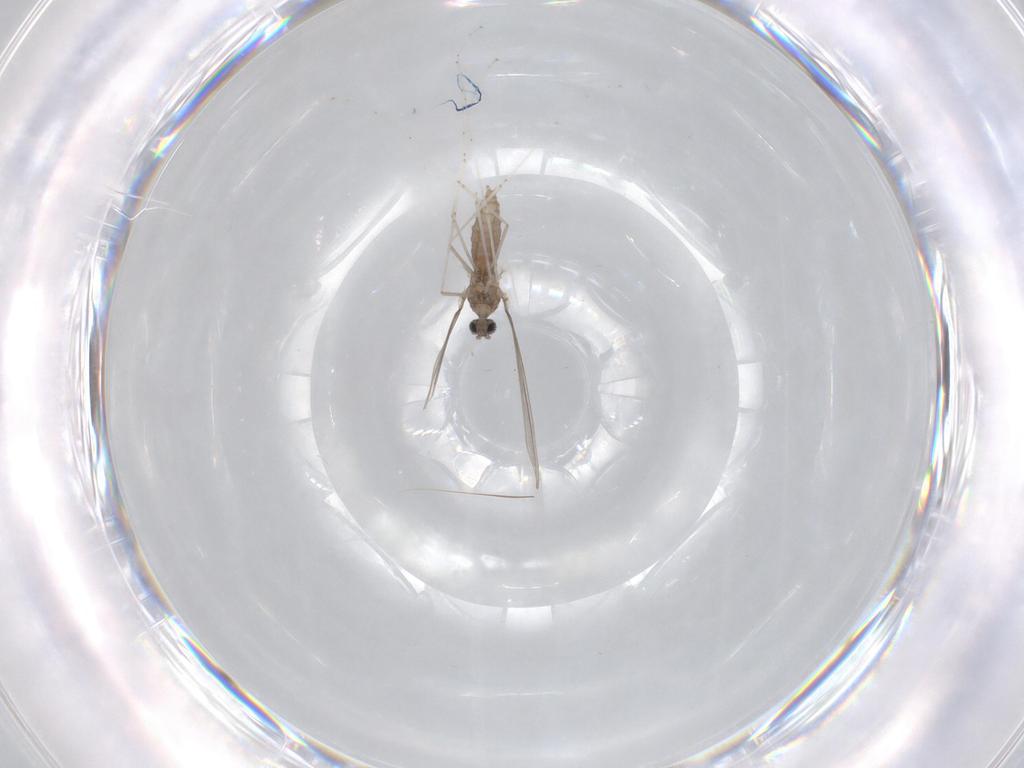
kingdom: Animalia
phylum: Arthropoda
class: Insecta
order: Diptera
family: Cecidomyiidae
